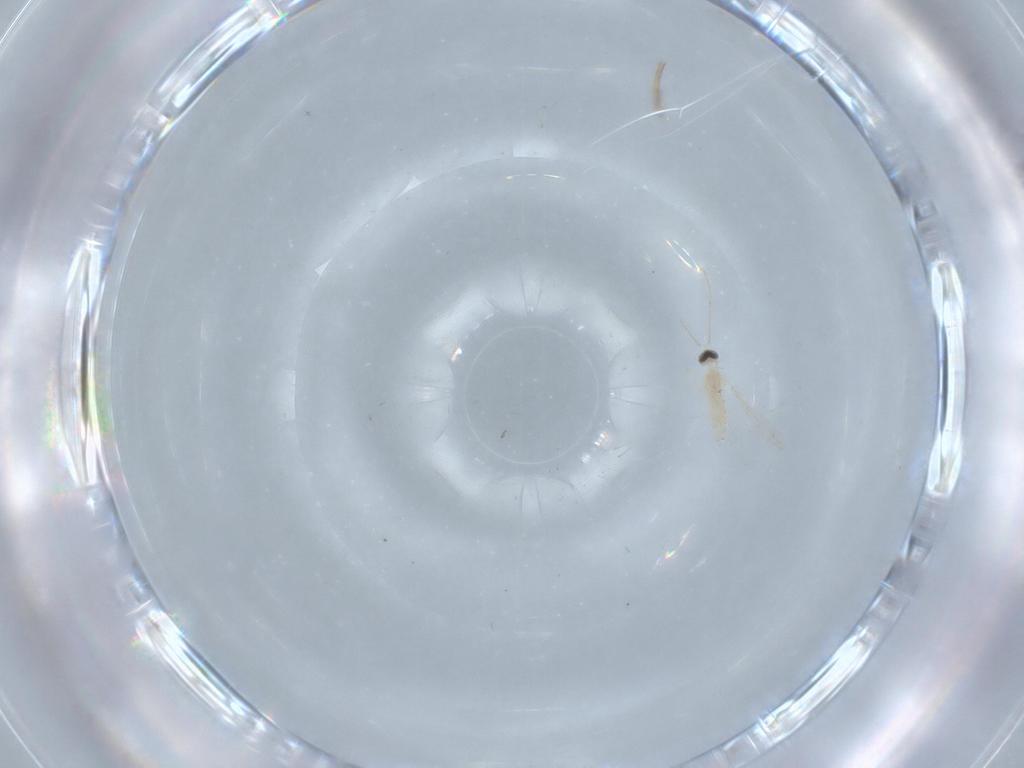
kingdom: Animalia
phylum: Arthropoda
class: Insecta
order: Diptera
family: Cecidomyiidae
